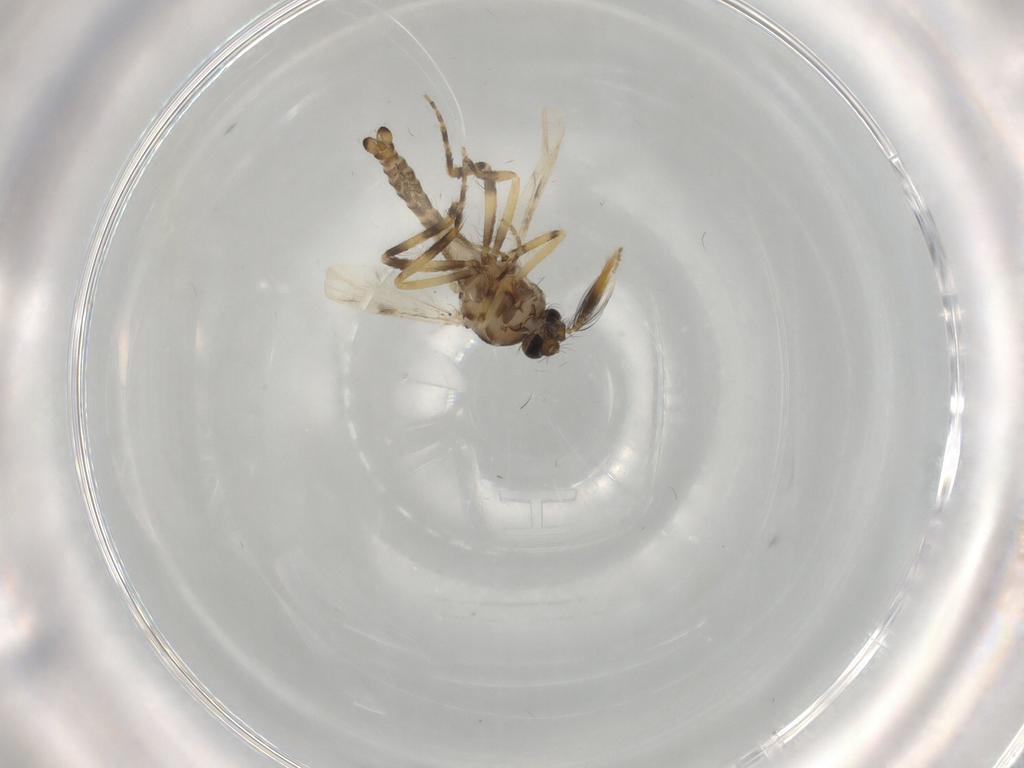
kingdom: Animalia
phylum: Arthropoda
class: Insecta
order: Diptera
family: Ceratopogonidae
